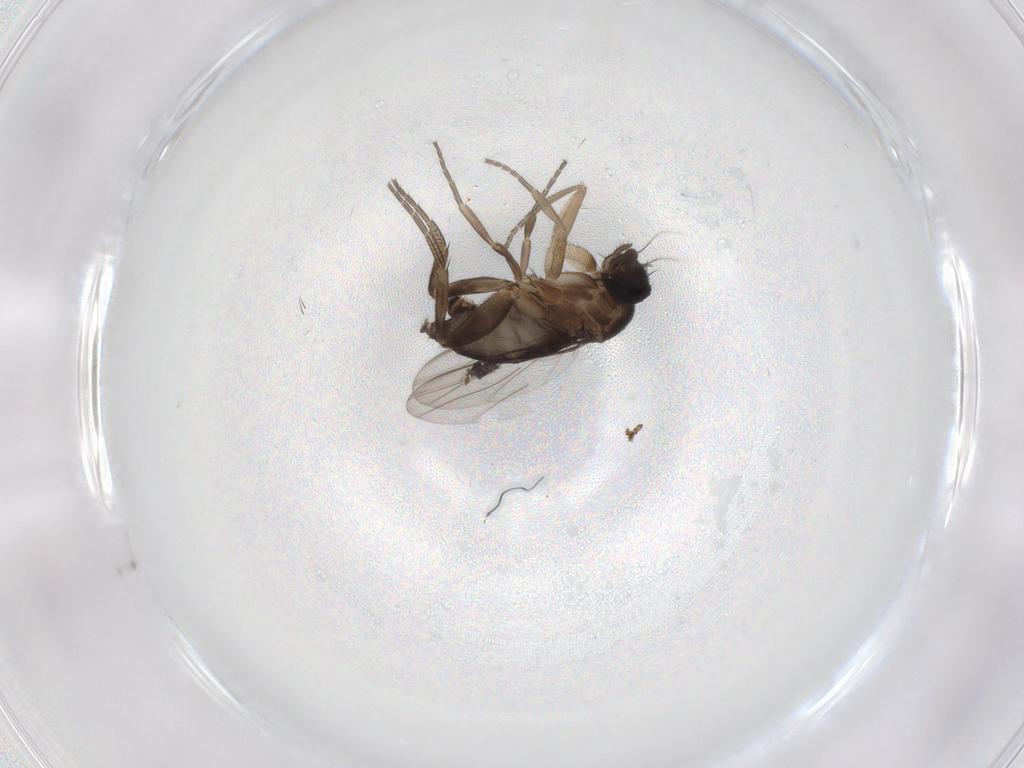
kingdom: Animalia
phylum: Arthropoda
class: Insecta
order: Diptera
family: Phoridae
